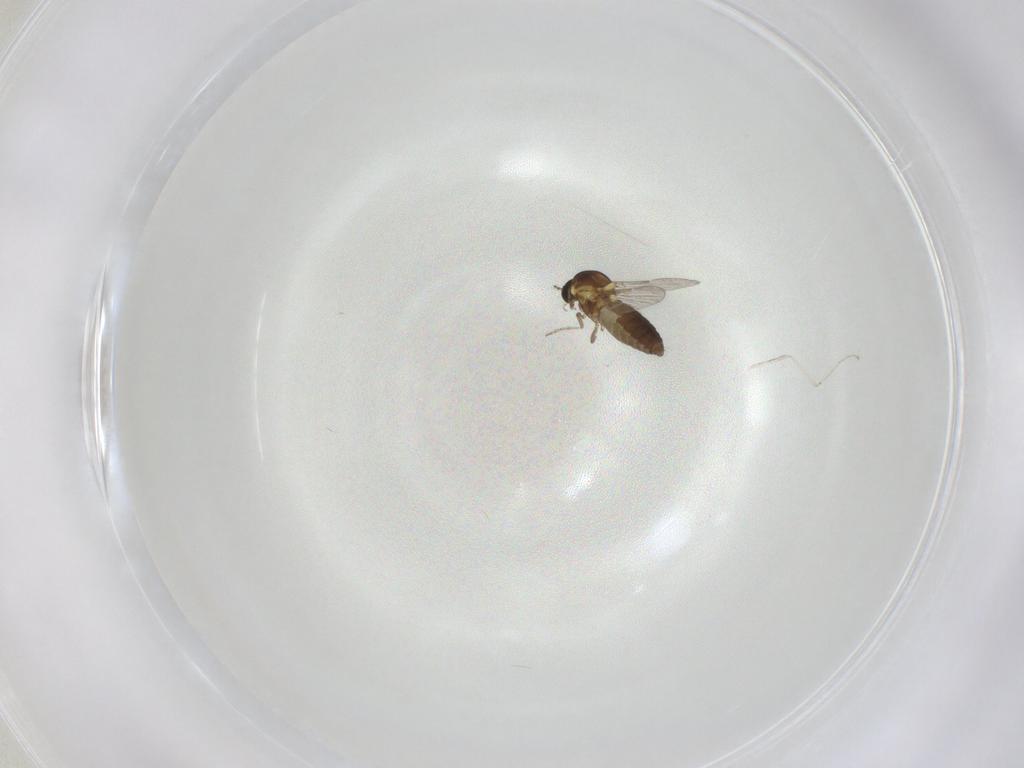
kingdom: Animalia
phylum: Arthropoda
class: Insecta
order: Diptera
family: Ceratopogonidae
